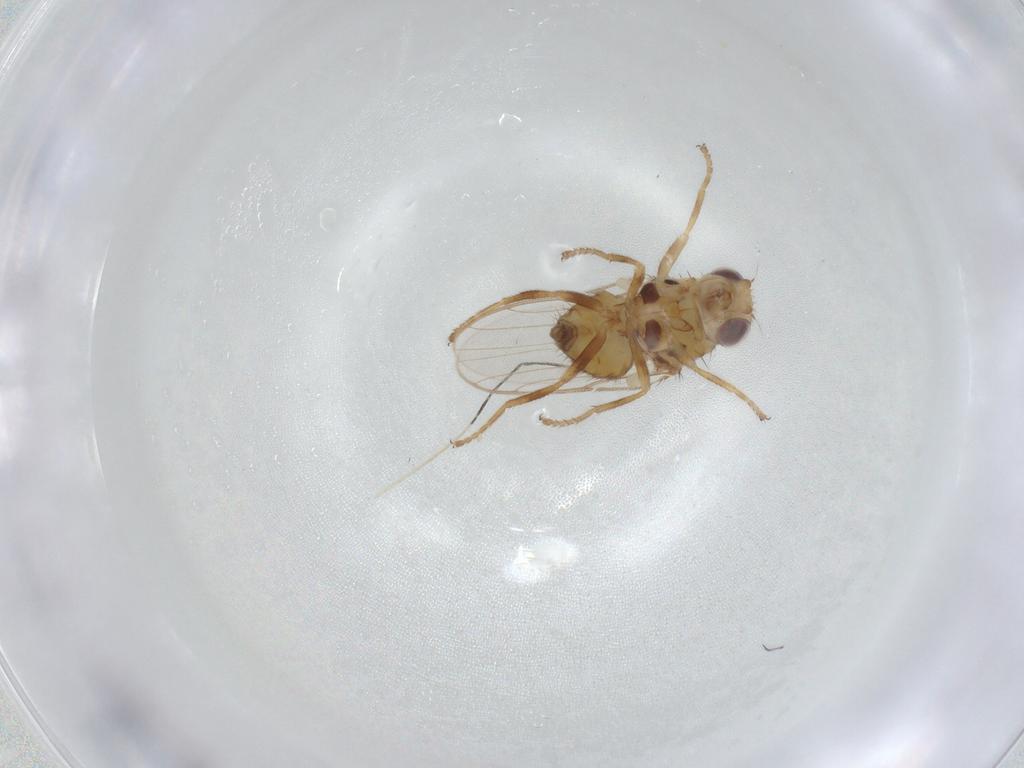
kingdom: Animalia
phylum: Arthropoda
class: Insecta
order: Diptera
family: Chloropidae
